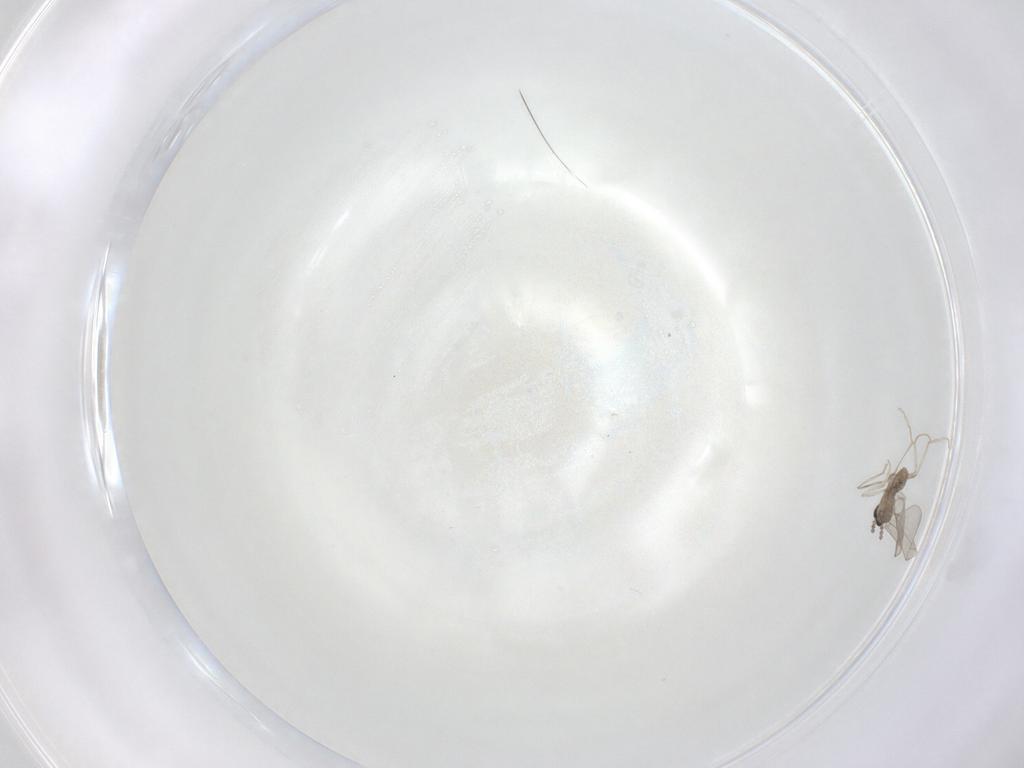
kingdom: Animalia
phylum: Arthropoda
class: Insecta
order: Diptera
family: Cecidomyiidae
